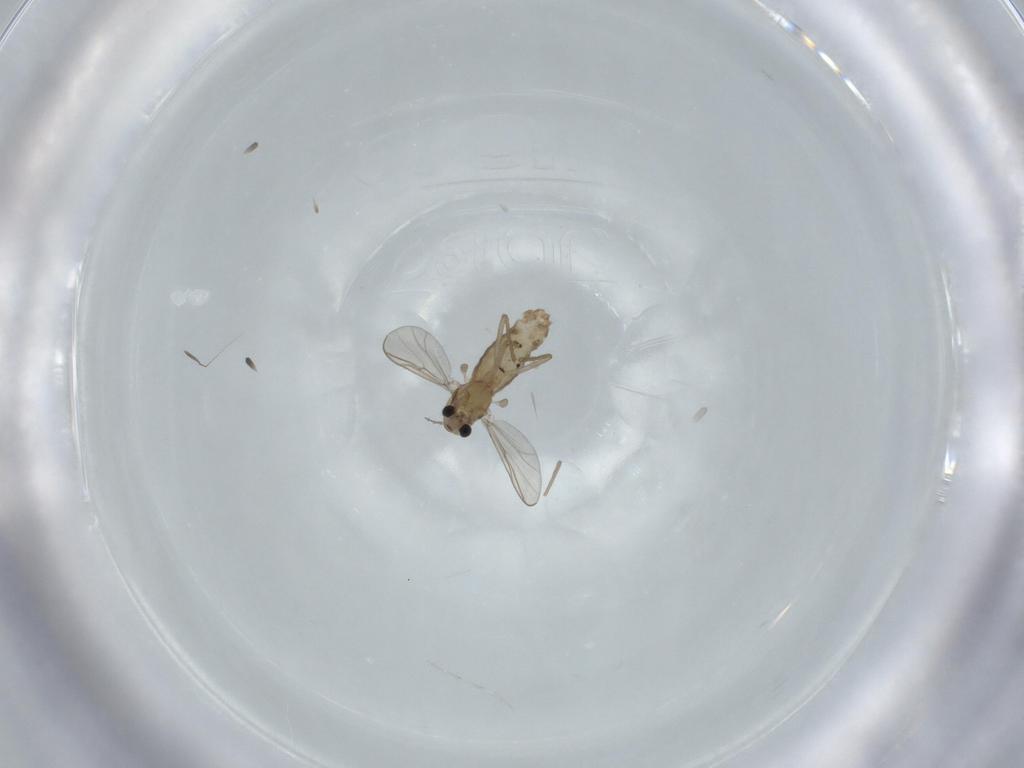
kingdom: Animalia
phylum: Arthropoda
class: Insecta
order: Diptera
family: Chironomidae
